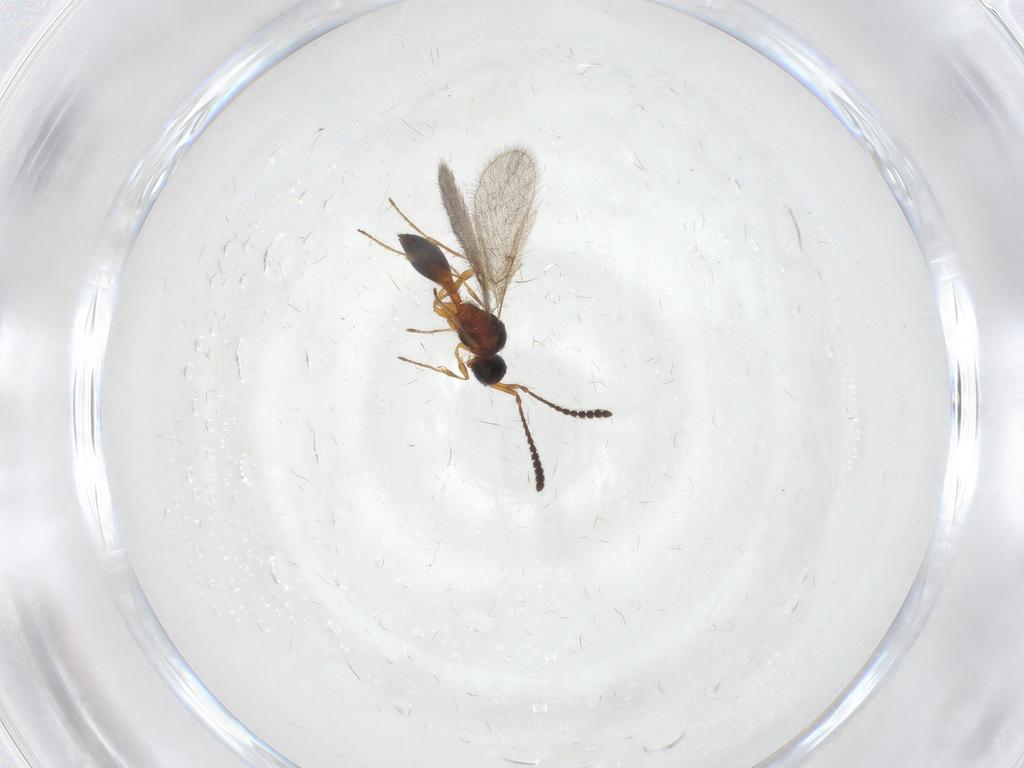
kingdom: Animalia
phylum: Arthropoda
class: Insecta
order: Hymenoptera
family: Diapriidae
